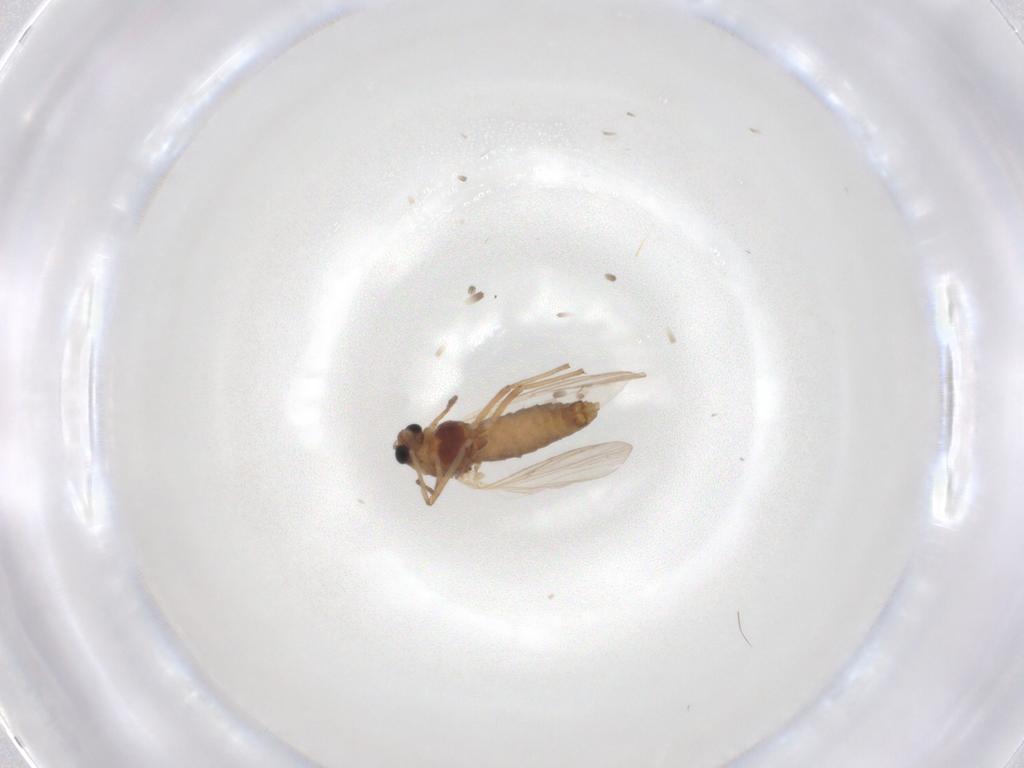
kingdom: Animalia
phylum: Arthropoda
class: Insecta
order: Diptera
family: Chironomidae
